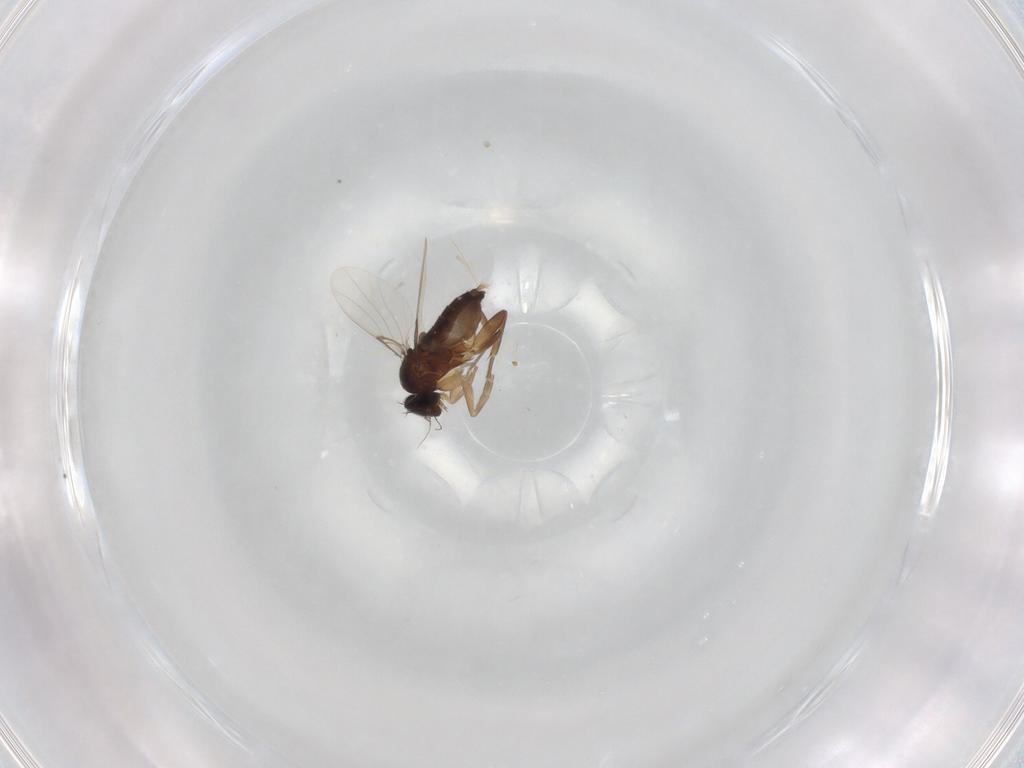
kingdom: Animalia
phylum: Arthropoda
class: Insecta
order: Diptera
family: Phoridae
